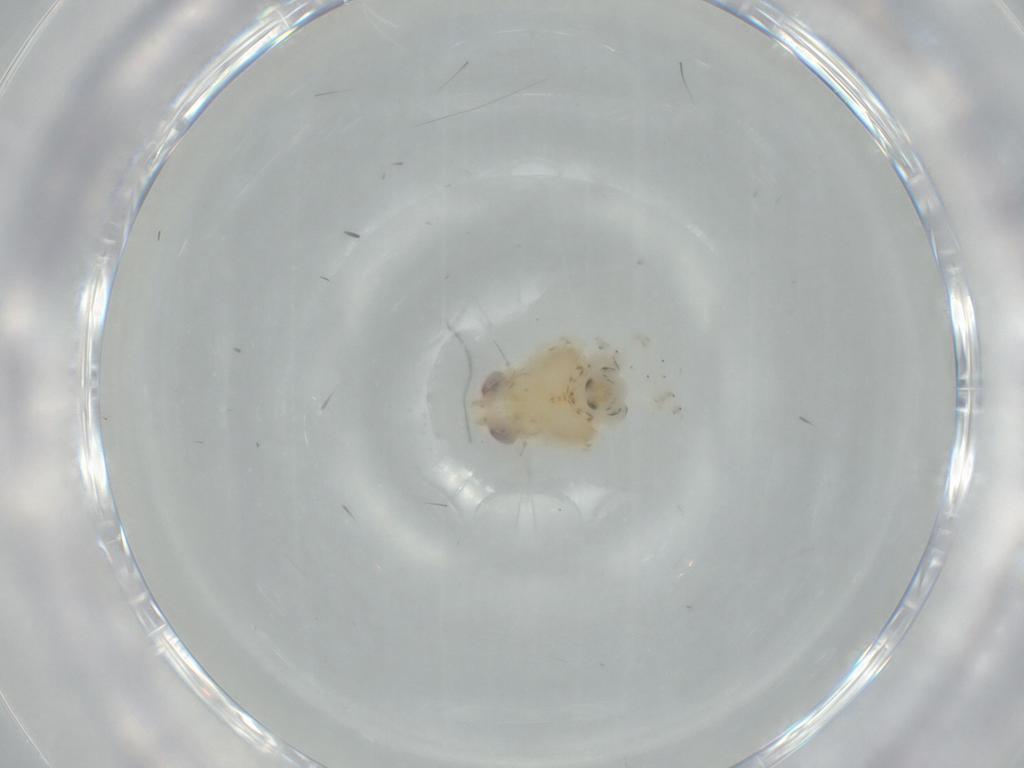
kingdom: Animalia
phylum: Arthropoda
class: Insecta
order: Hemiptera
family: Nogodinidae
